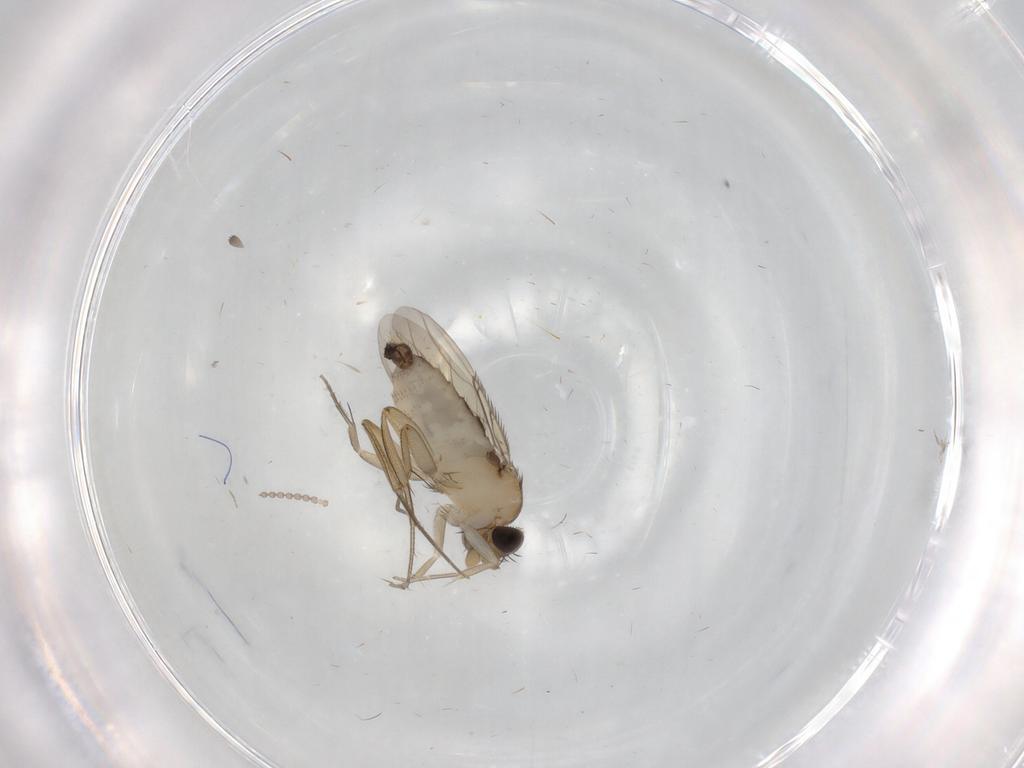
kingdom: Animalia
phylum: Arthropoda
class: Insecta
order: Diptera
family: Phoridae
